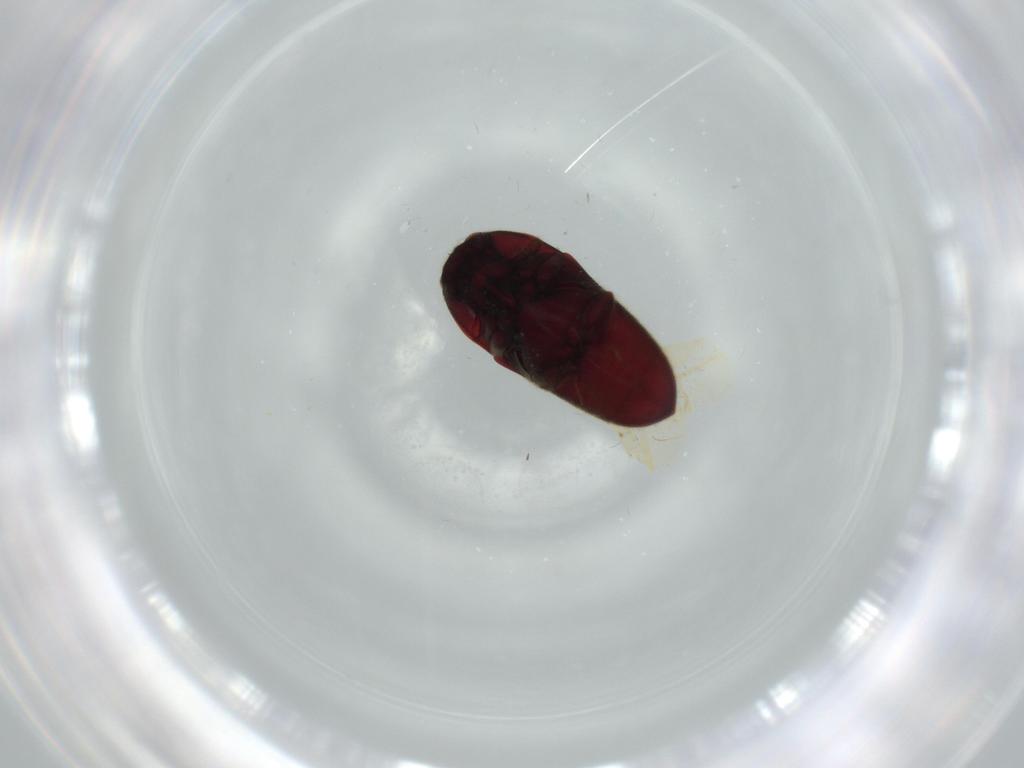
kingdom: Animalia
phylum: Arthropoda
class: Insecta
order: Coleoptera
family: Throscidae
